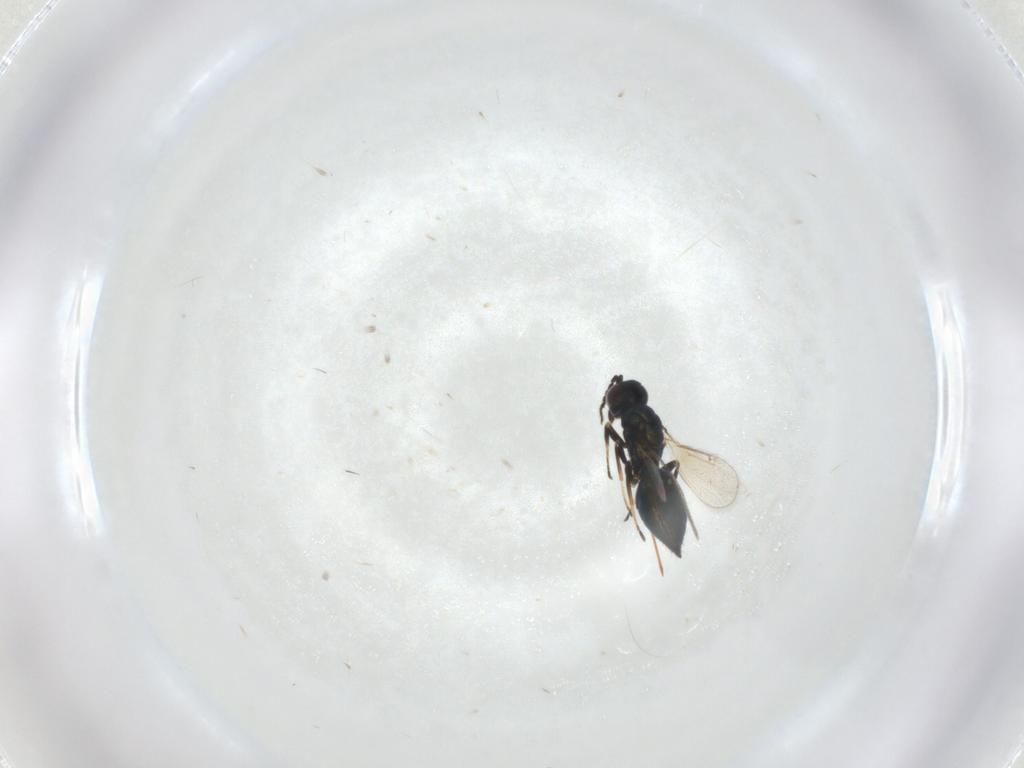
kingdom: Animalia
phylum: Arthropoda
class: Insecta
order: Hymenoptera
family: Eulophidae
